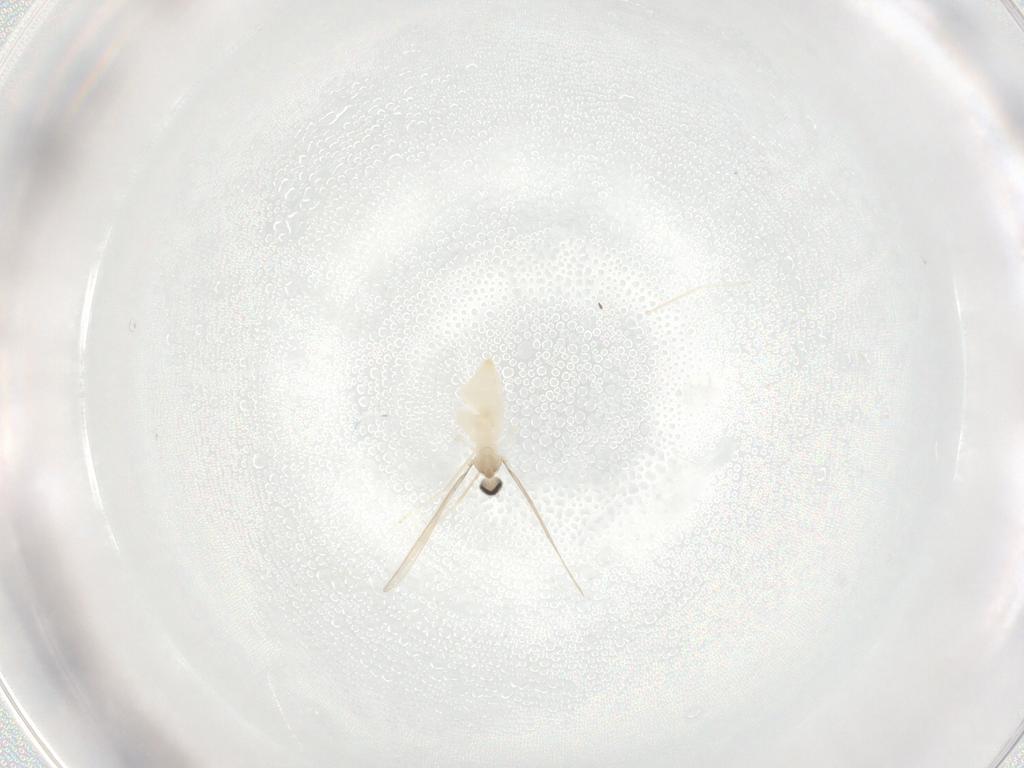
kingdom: Animalia
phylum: Arthropoda
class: Insecta
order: Diptera
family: Cecidomyiidae
